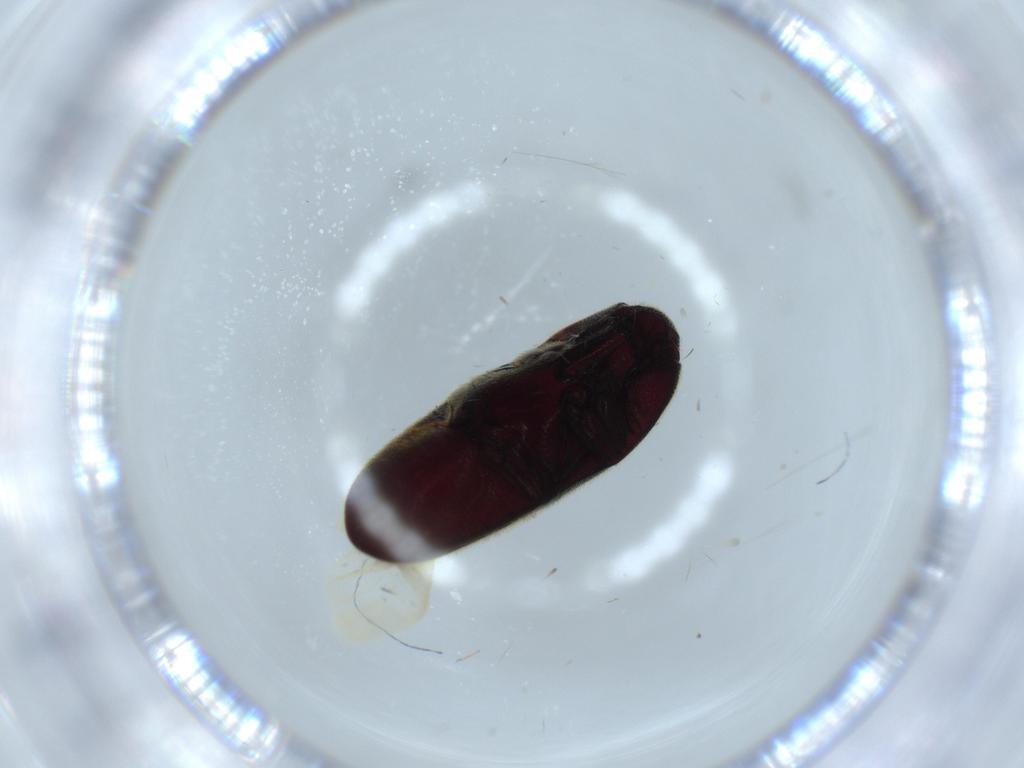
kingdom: Animalia
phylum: Arthropoda
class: Insecta
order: Coleoptera
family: Throscidae
